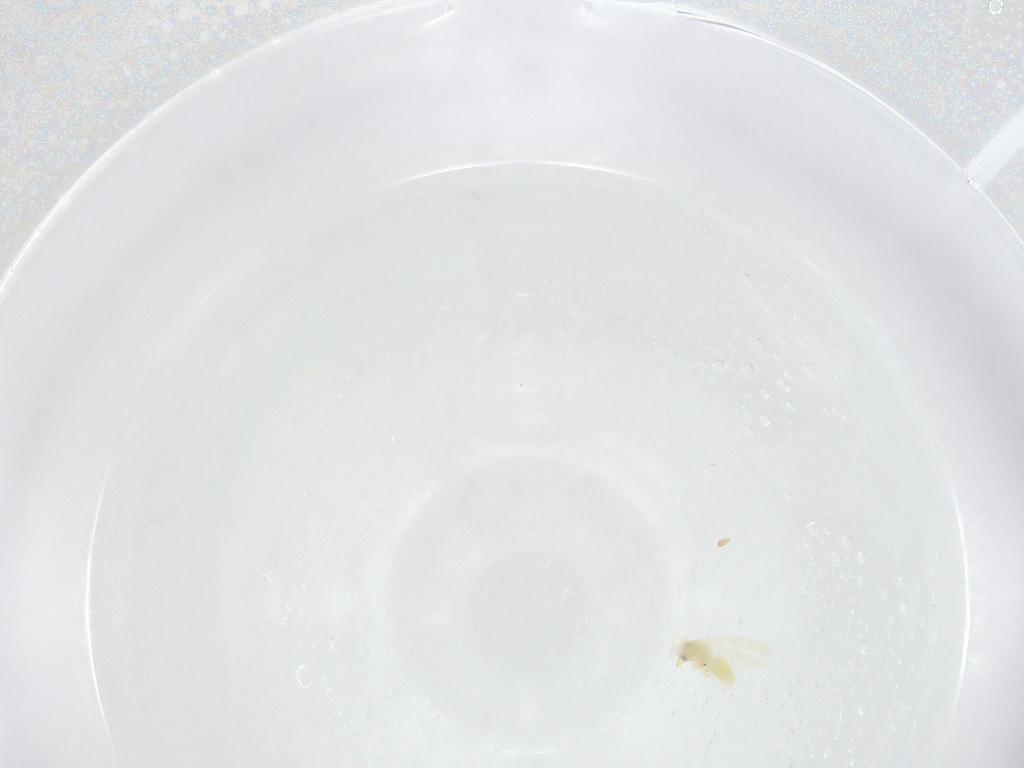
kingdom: Animalia
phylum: Arthropoda
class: Insecta
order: Hemiptera
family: Aleyrodidae
